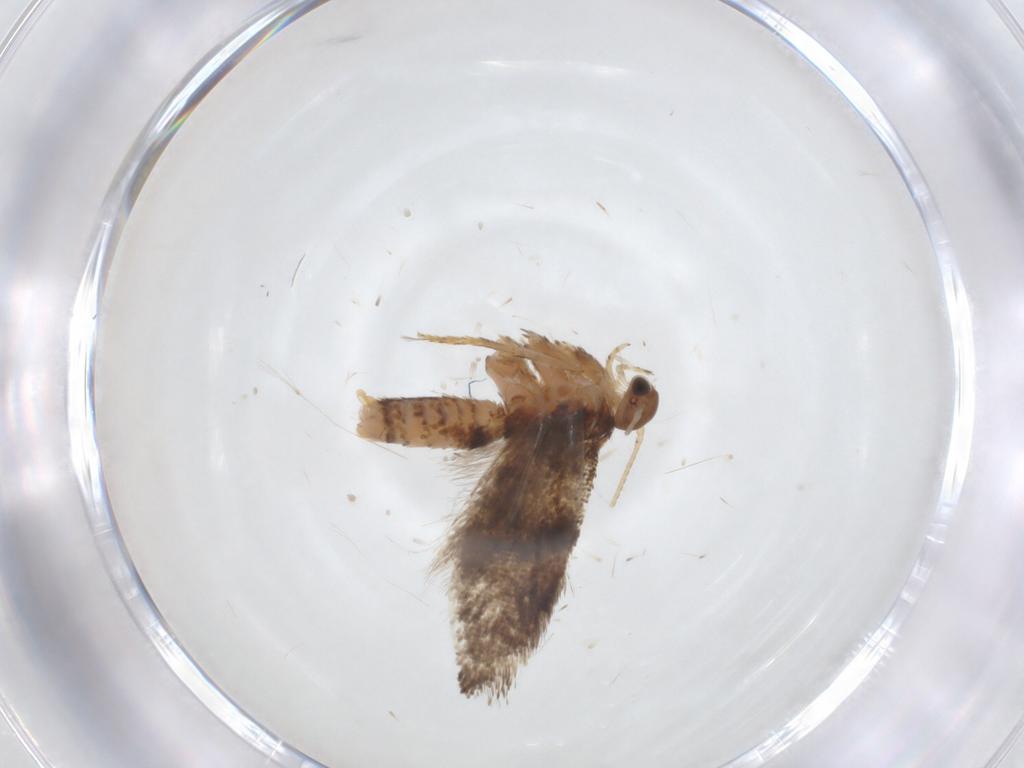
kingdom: Animalia
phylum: Arthropoda
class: Insecta
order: Lepidoptera
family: Gelechiidae
